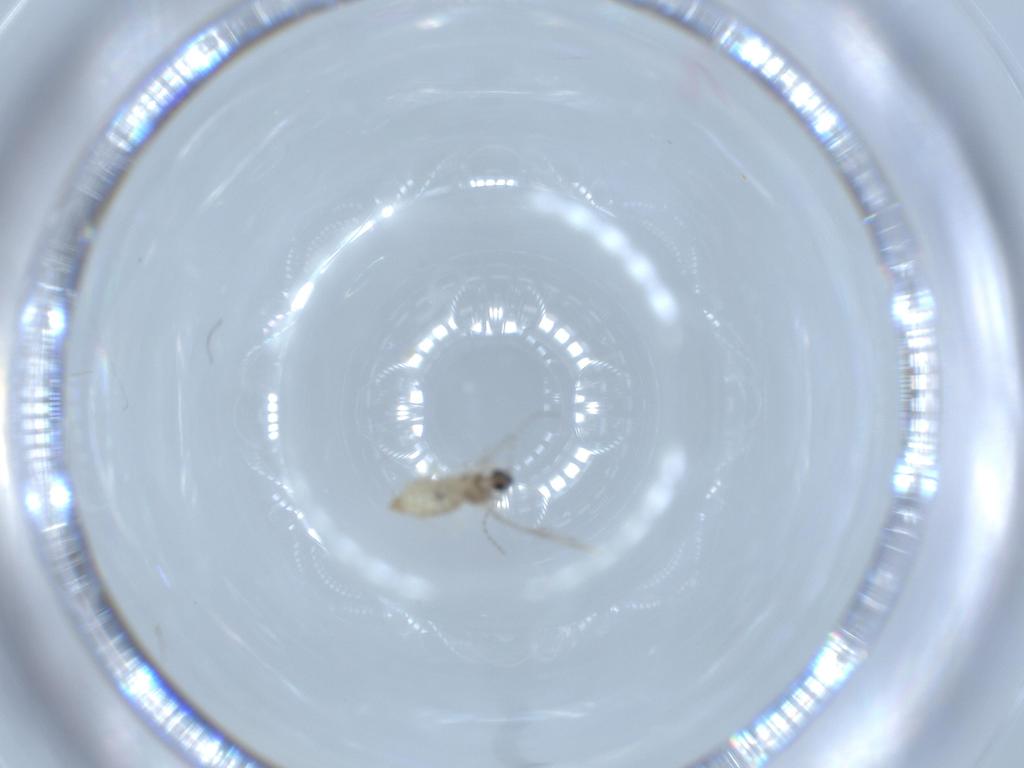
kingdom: Animalia
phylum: Arthropoda
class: Insecta
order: Diptera
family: Cecidomyiidae
